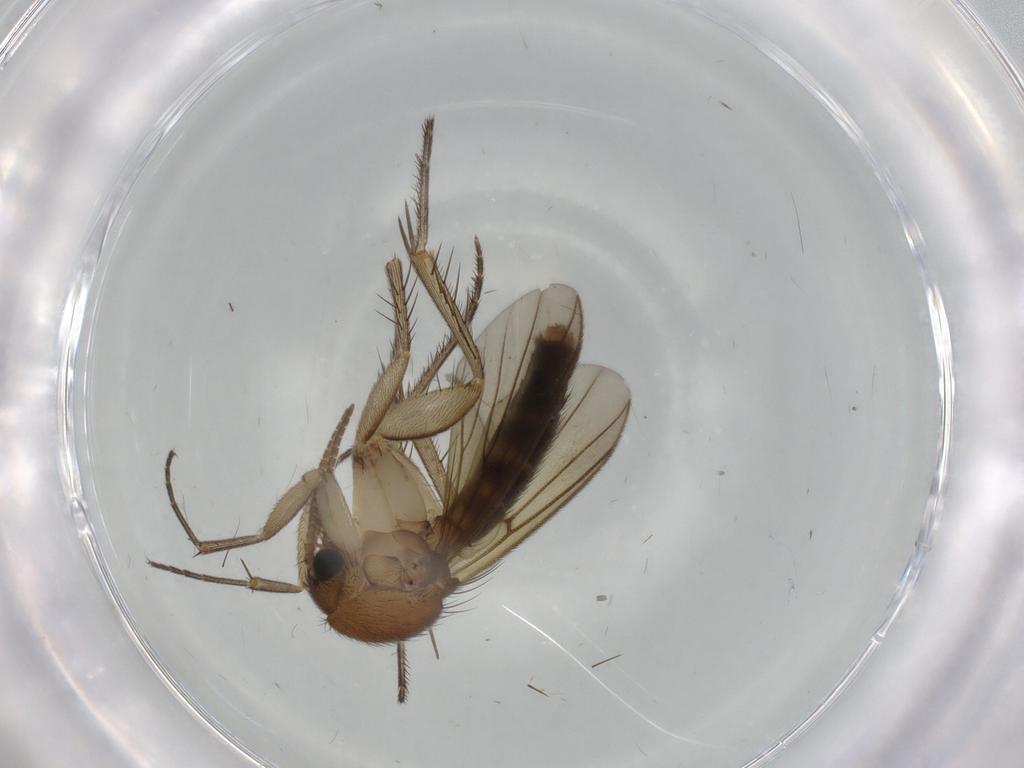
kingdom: Animalia
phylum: Arthropoda
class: Insecta
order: Diptera
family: Mycetophilidae
